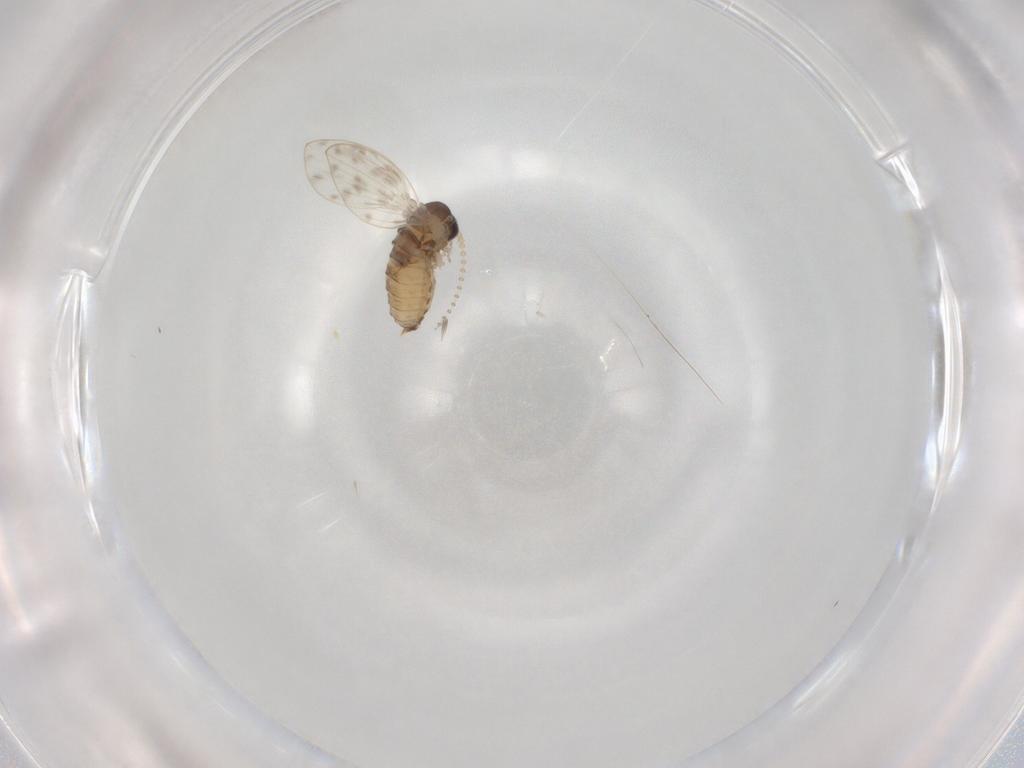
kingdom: Animalia
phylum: Arthropoda
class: Insecta
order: Diptera
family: Psychodidae
